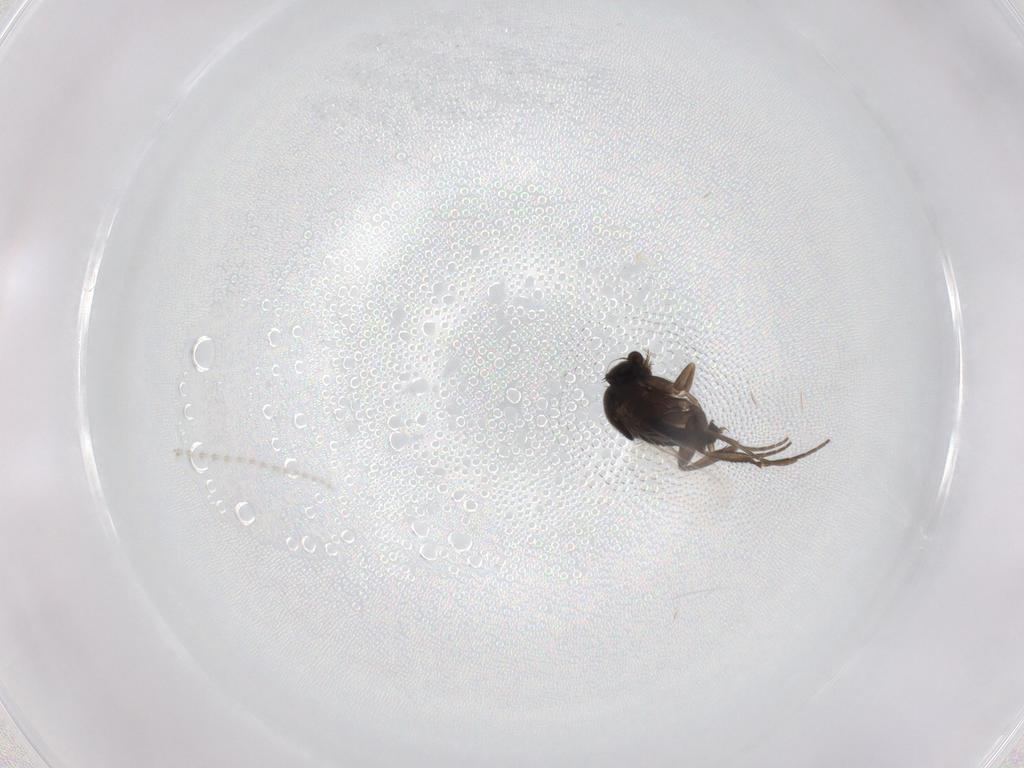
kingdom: Animalia
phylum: Arthropoda
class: Insecta
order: Diptera
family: Phoridae
